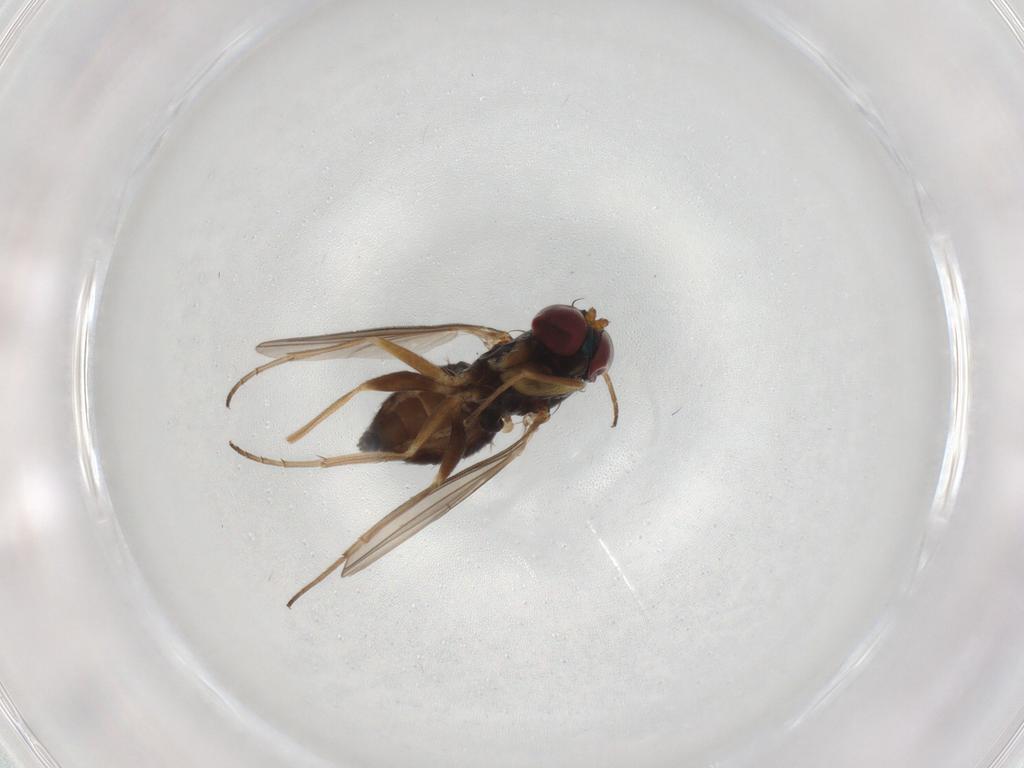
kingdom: Animalia
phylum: Arthropoda
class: Insecta
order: Diptera
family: Dolichopodidae
